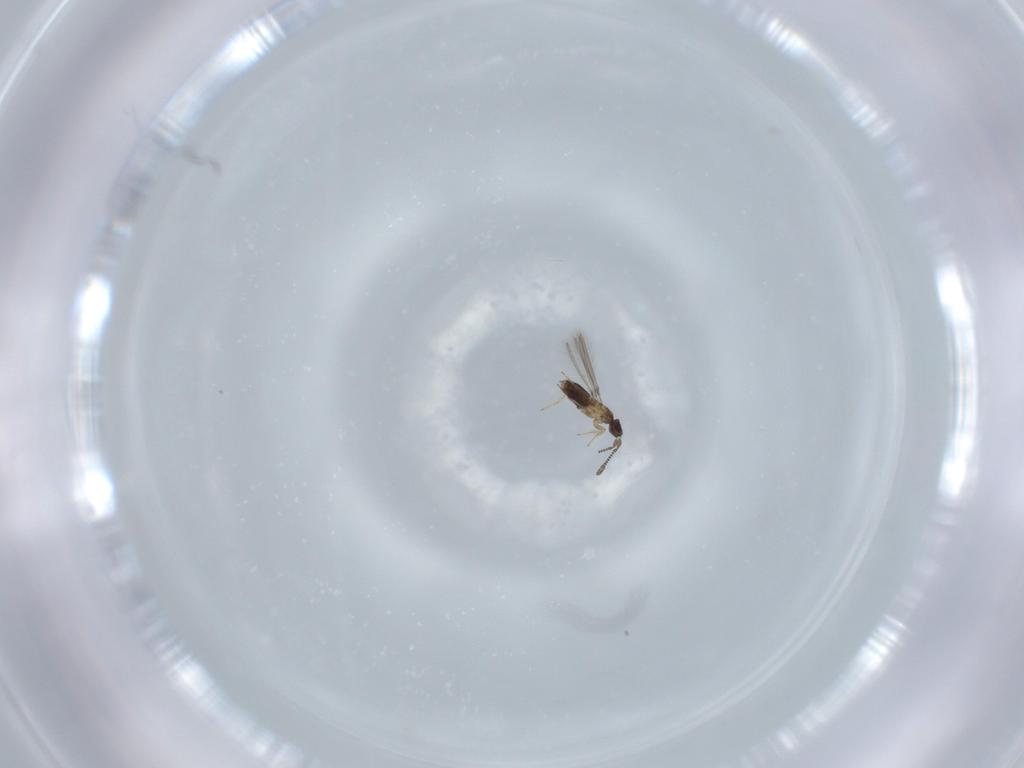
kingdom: Animalia
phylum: Arthropoda
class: Insecta
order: Hymenoptera
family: Mymaridae
